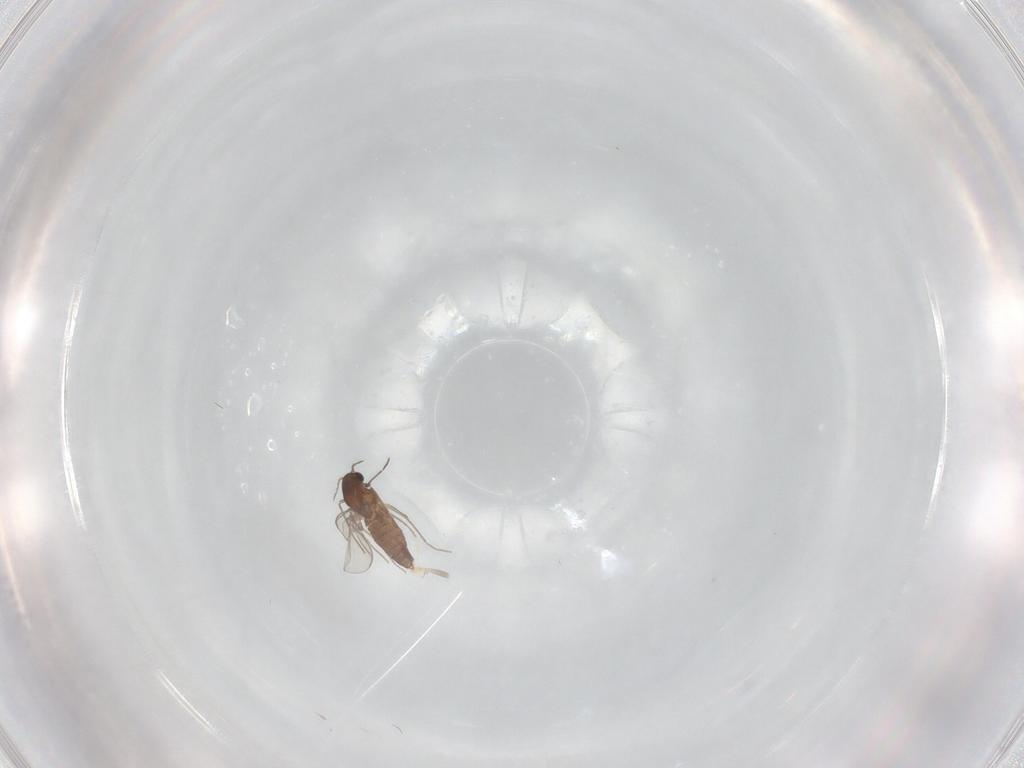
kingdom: Animalia
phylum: Arthropoda
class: Insecta
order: Diptera
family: Chironomidae
